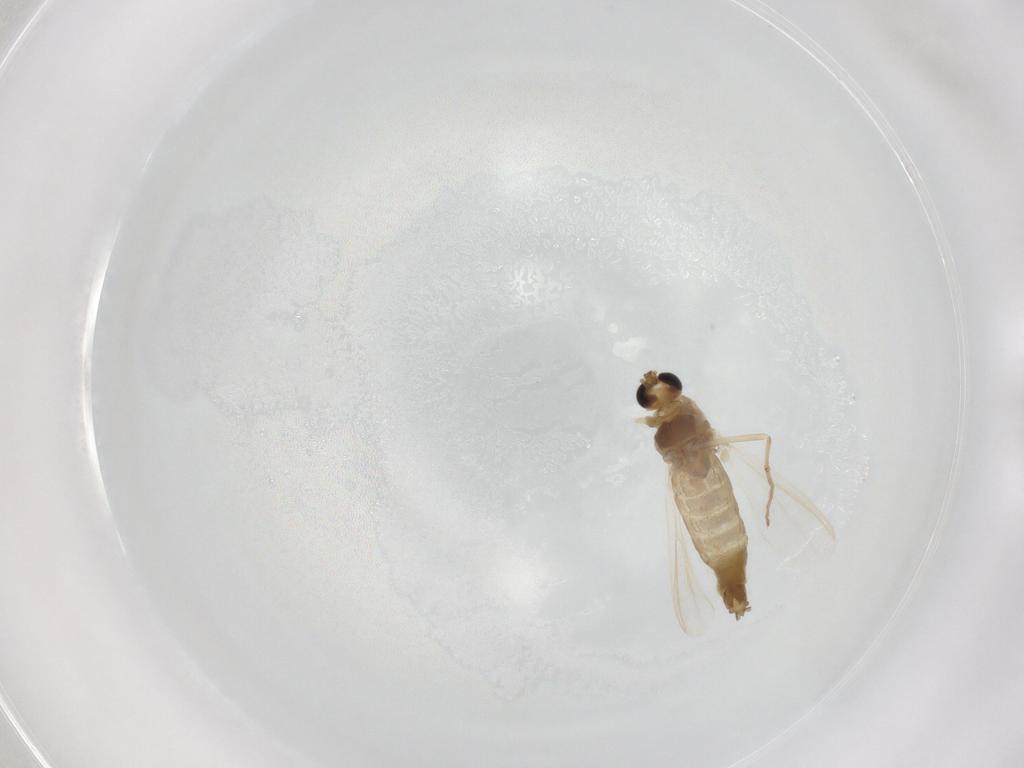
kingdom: Animalia
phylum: Arthropoda
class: Insecta
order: Diptera
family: Chironomidae
